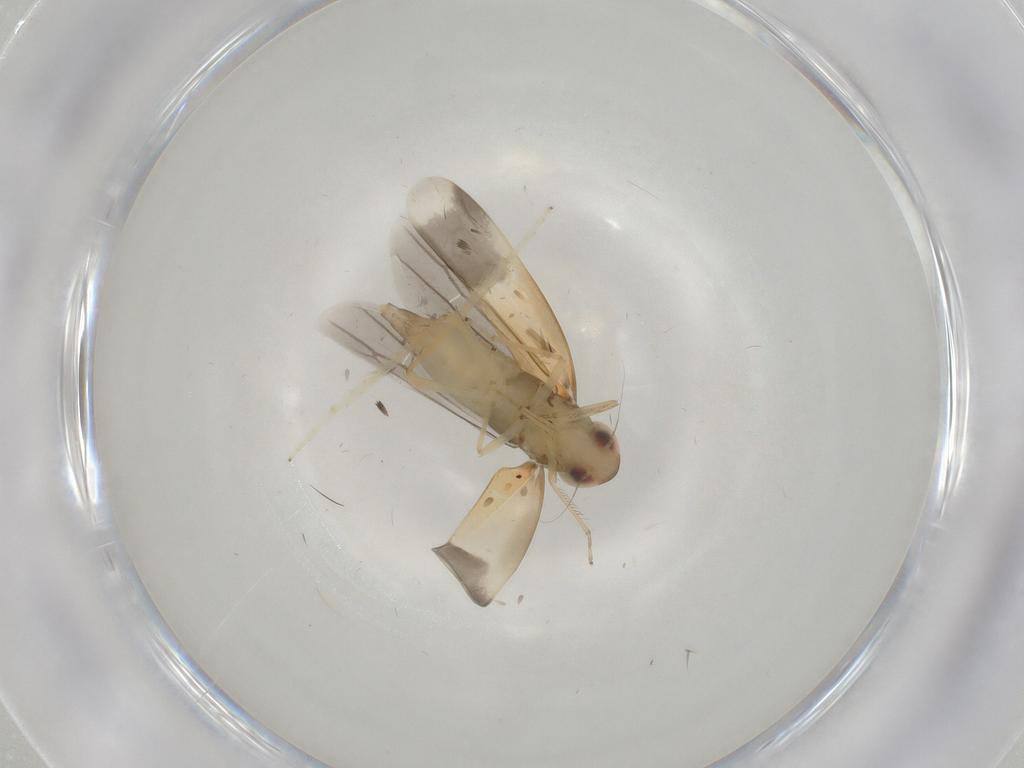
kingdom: Animalia
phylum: Arthropoda
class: Insecta
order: Hemiptera
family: Cicadellidae
